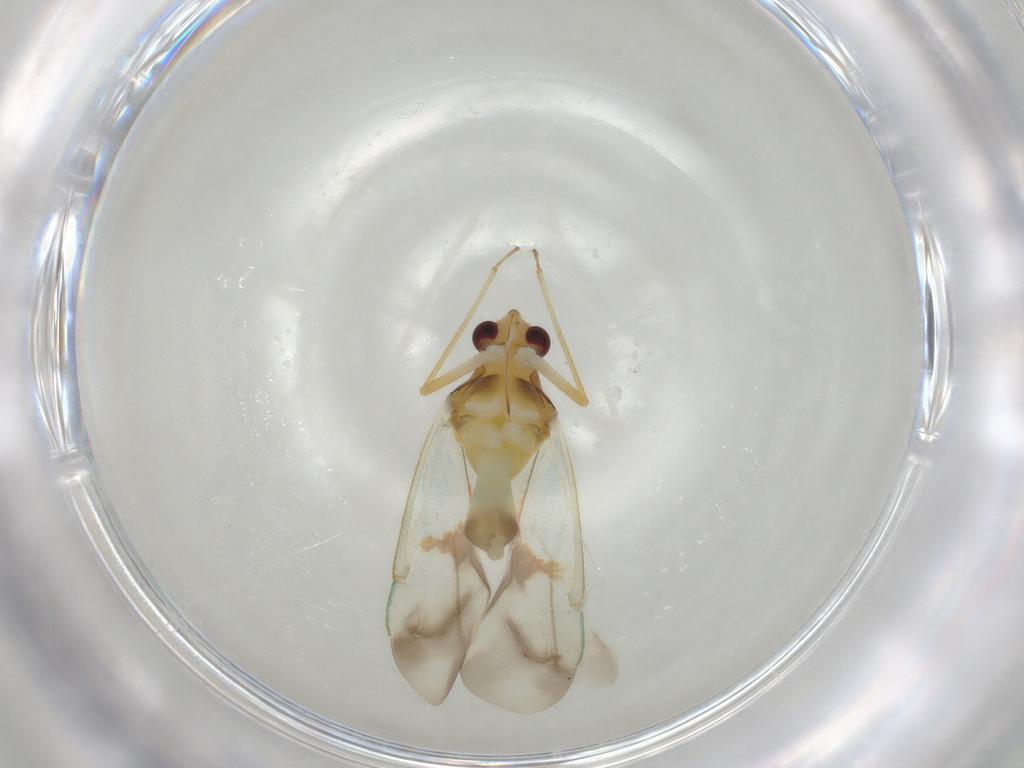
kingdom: Animalia
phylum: Arthropoda
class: Insecta
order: Hemiptera
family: Miridae
